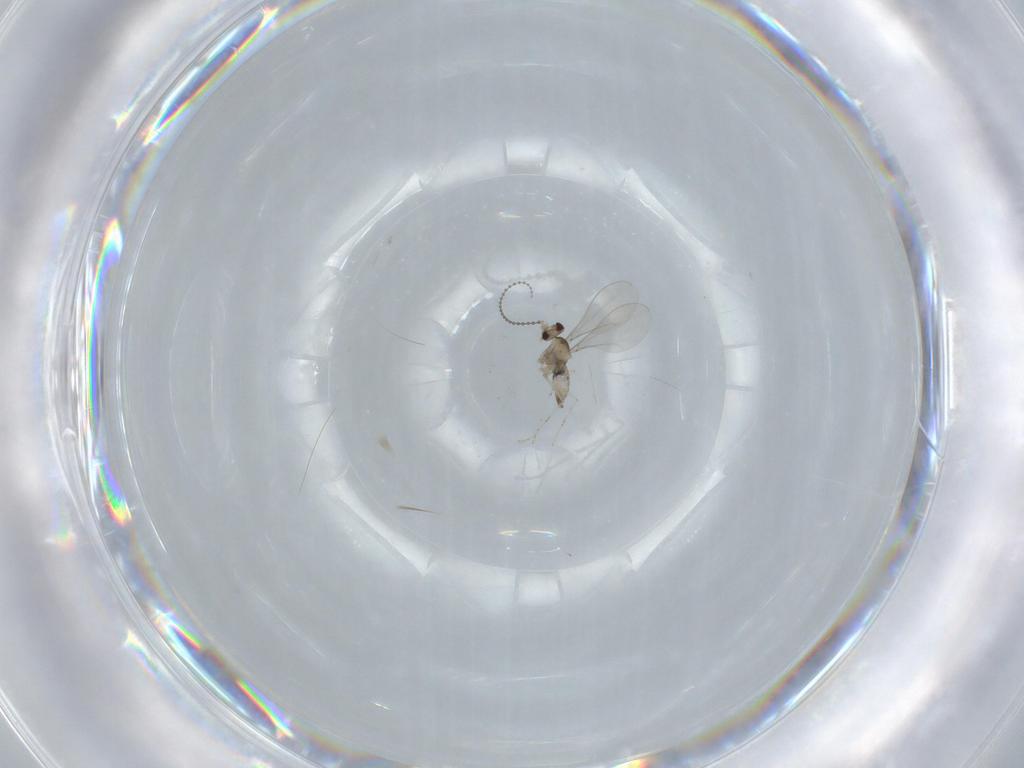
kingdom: Animalia
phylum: Arthropoda
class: Insecta
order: Diptera
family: Cecidomyiidae
